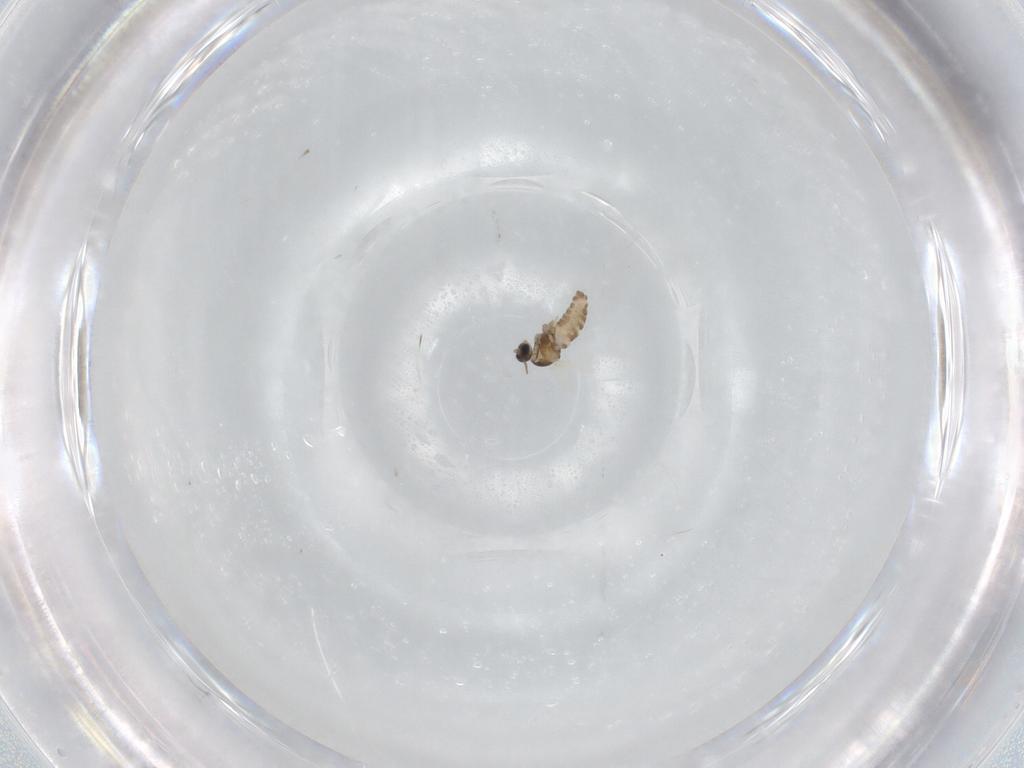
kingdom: Animalia
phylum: Arthropoda
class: Insecta
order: Diptera
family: Cecidomyiidae
